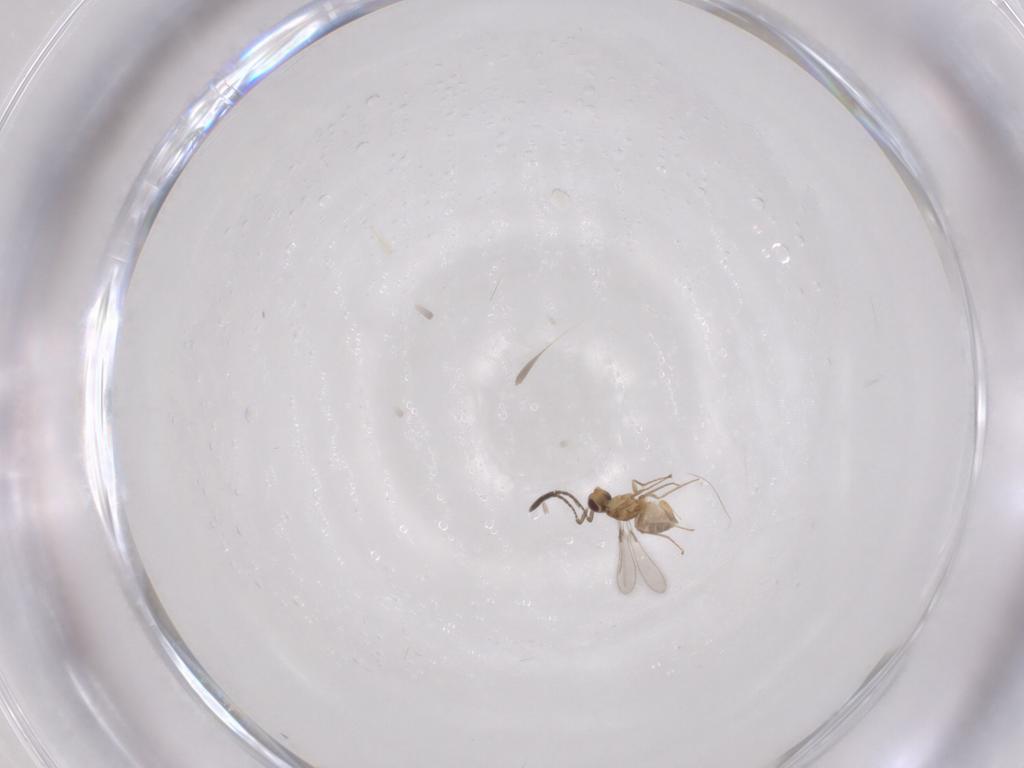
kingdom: Animalia
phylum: Arthropoda
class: Insecta
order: Hymenoptera
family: Mymaridae
